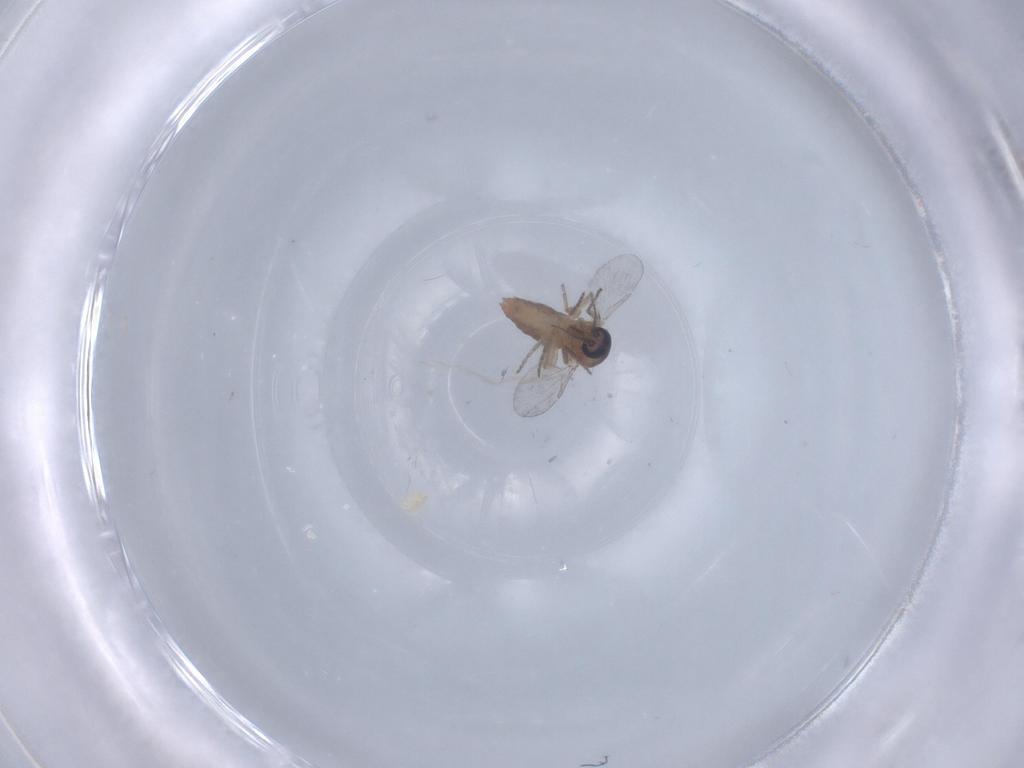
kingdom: Animalia
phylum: Arthropoda
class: Insecta
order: Diptera
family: Ceratopogonidae
